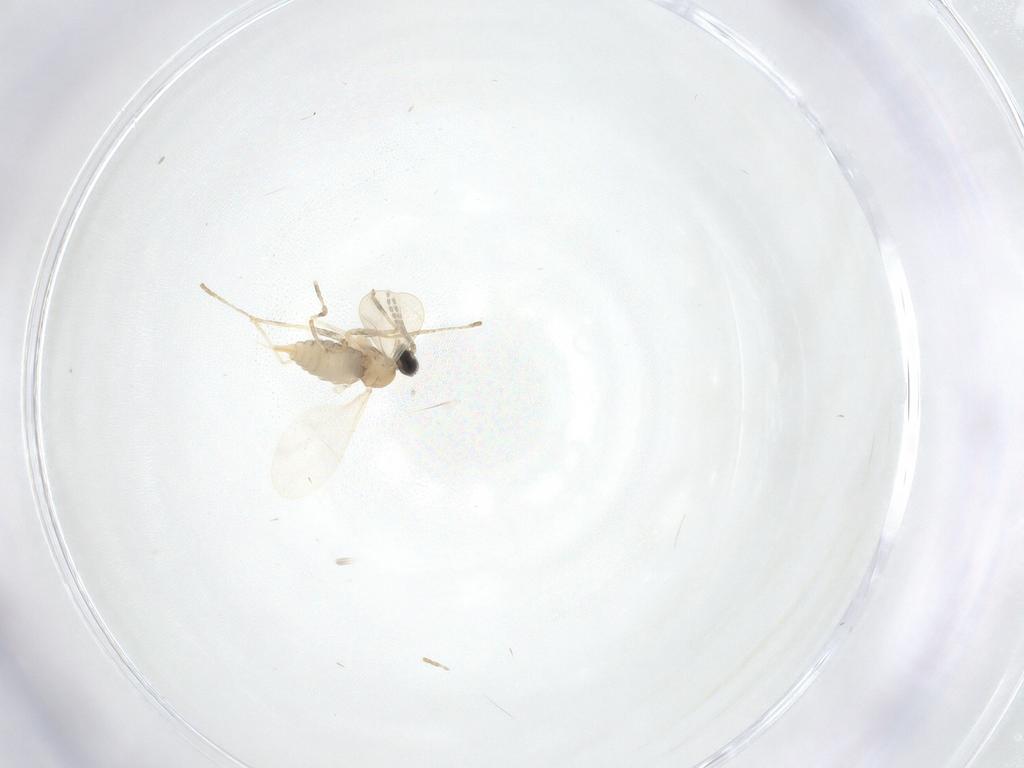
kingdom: Animalia
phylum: Arthropoda
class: Insecta
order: Diptera
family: Cecidomyiidae
